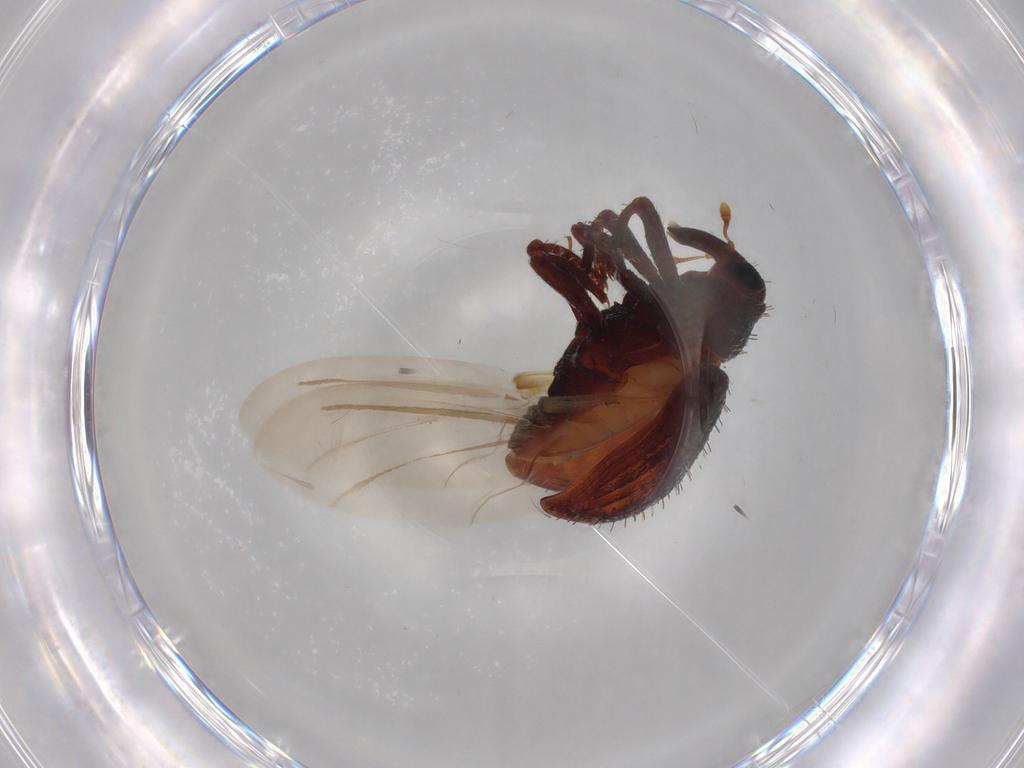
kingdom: Animalia
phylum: Arthropoda
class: Insecta
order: Coleoptera
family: Curculionidae
